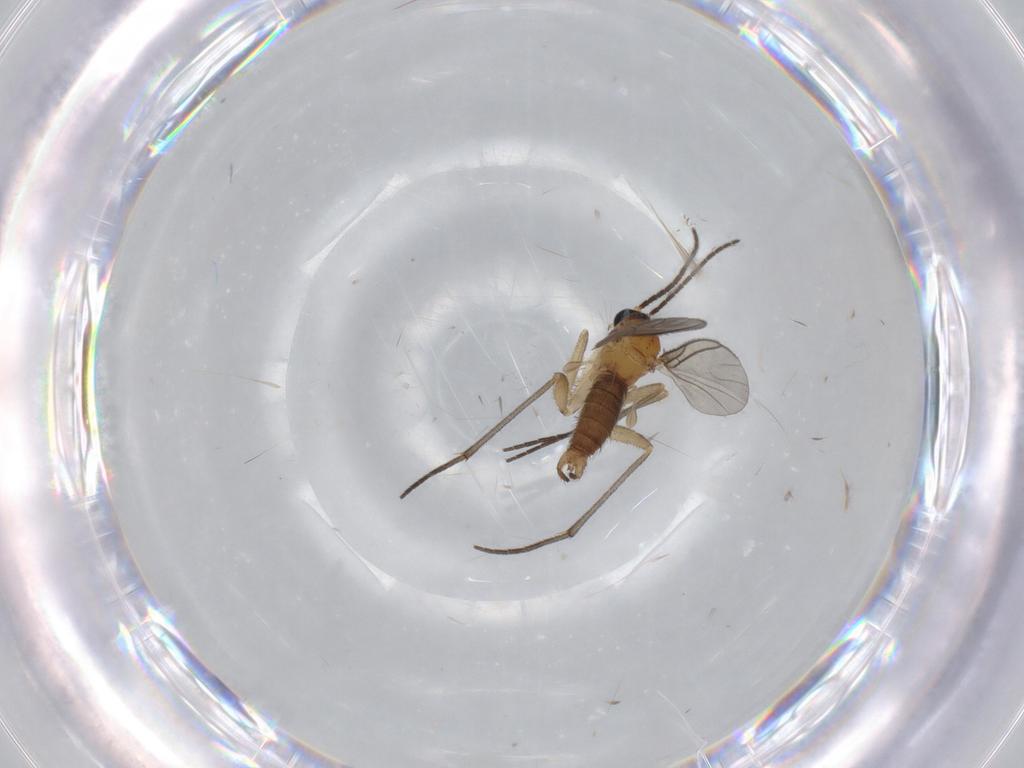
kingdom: Animalia
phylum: Arthropoda
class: Insecta
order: Diptera
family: Sciaridae
